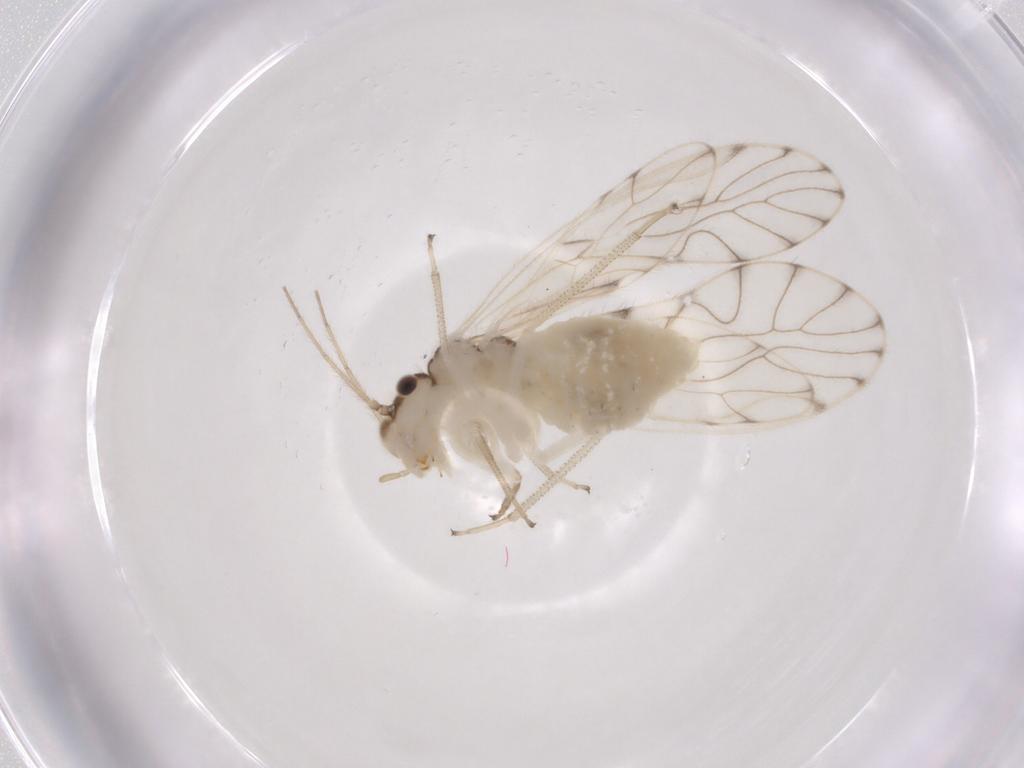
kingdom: Animalia
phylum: Arthropoda
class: Insecta
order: Psocodea
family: Philotarsidae
